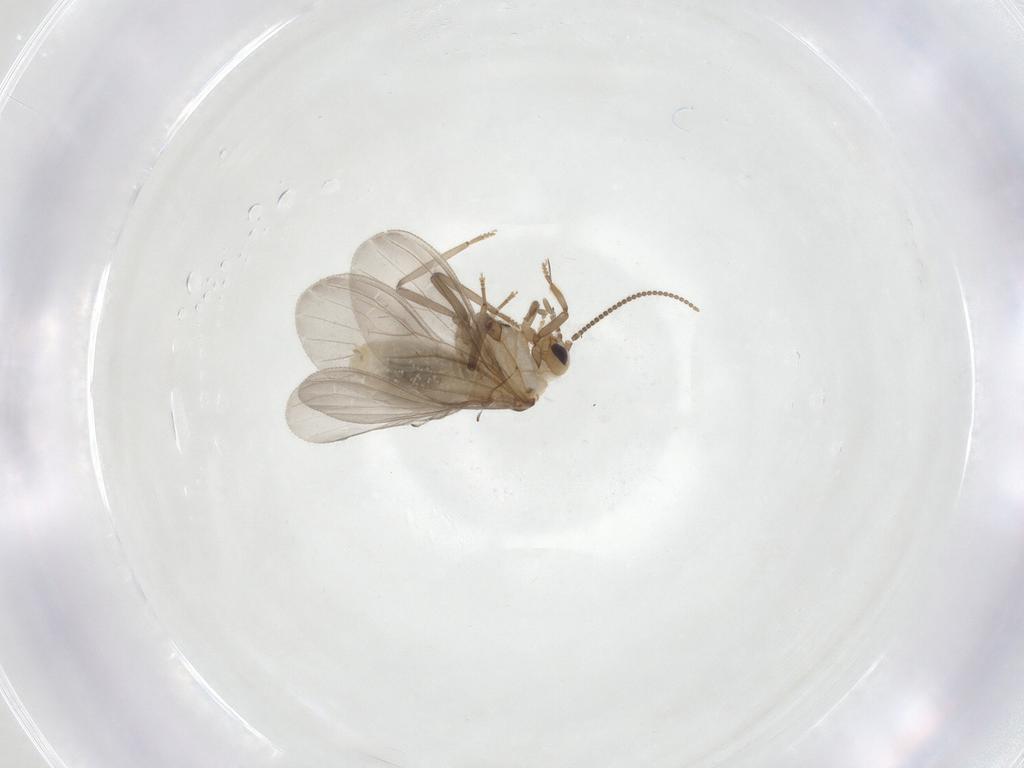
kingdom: Animalia
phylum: Arthropoda
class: Insecta
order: Neuroptera
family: Coniopterygidae
